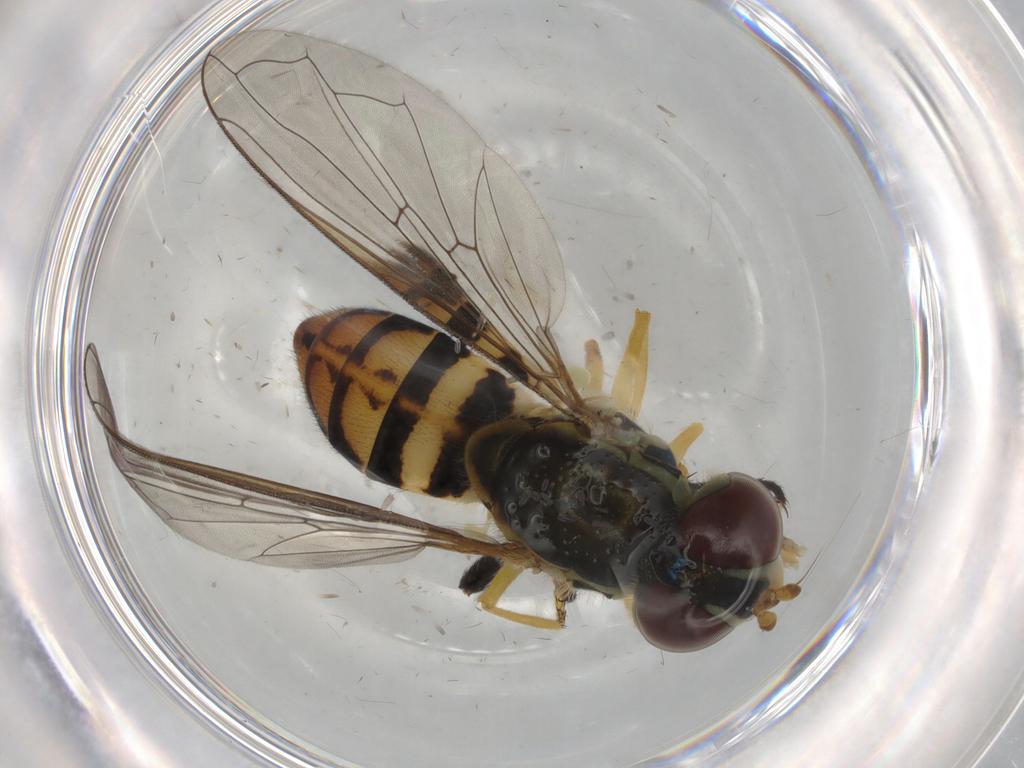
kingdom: Animalia
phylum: Arthropoda
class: Insecta
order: Diptera
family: Syrphidae
